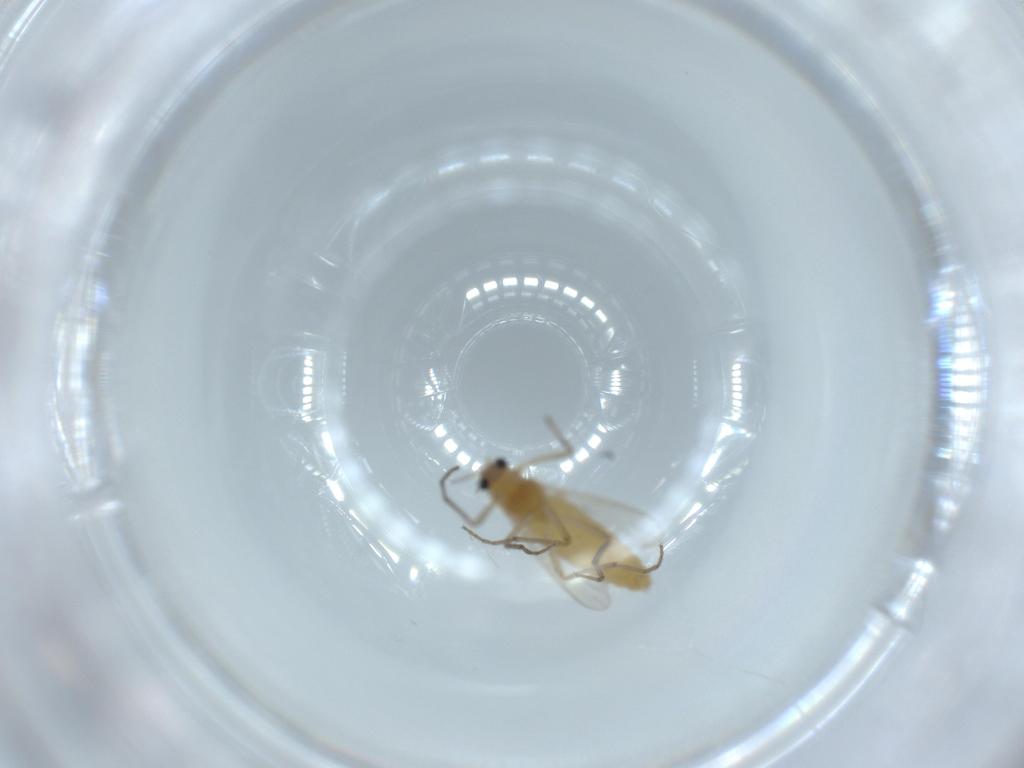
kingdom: Animalia
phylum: Arthropoda
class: Insecta
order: Diptera
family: Chironomidae
